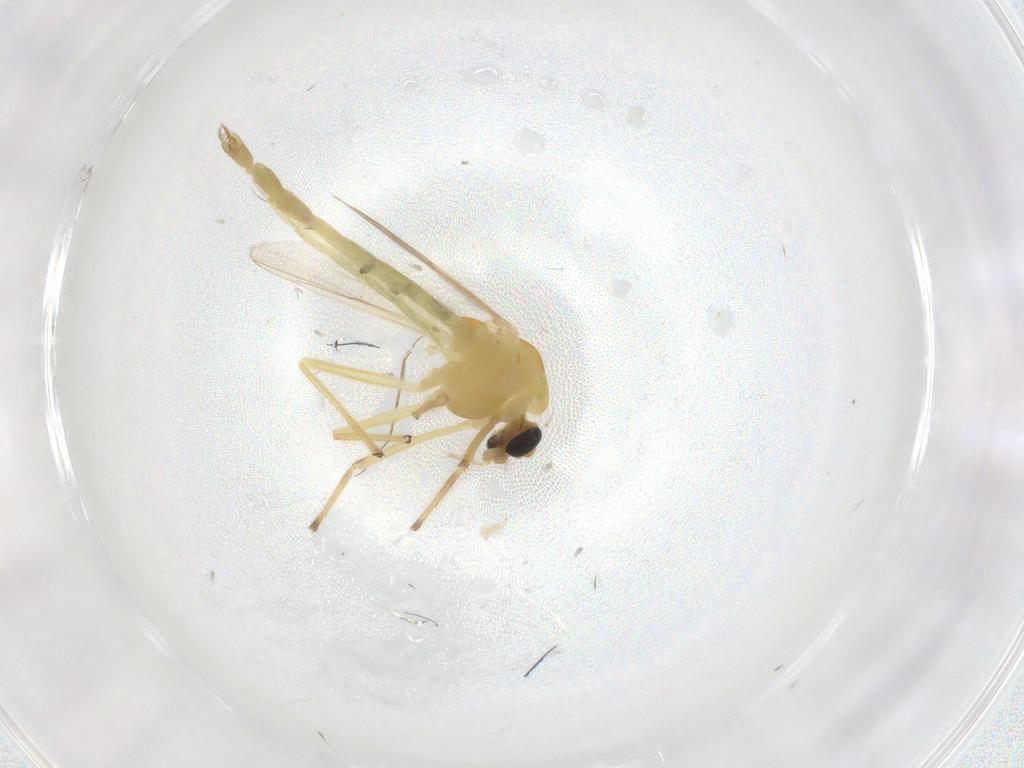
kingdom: Animalia
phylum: Arthropoda
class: Insecta
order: Diptera
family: Chironomidae
